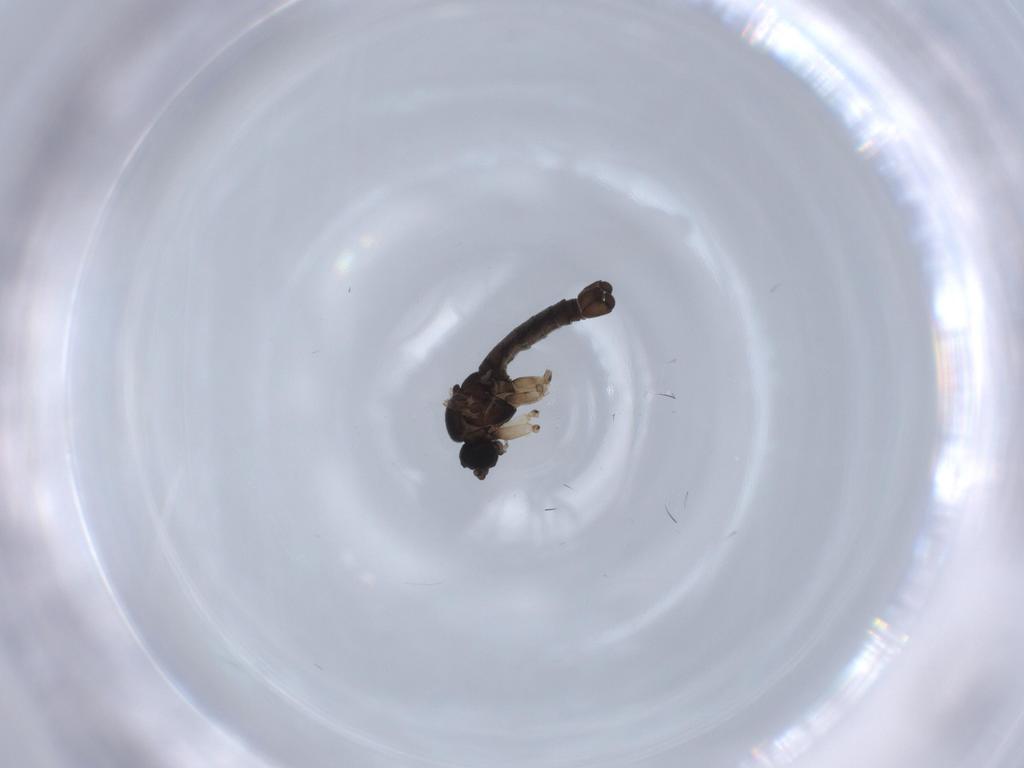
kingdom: Animalia
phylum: Arthropoda
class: Insecta
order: Diptera
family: Sciaridae
